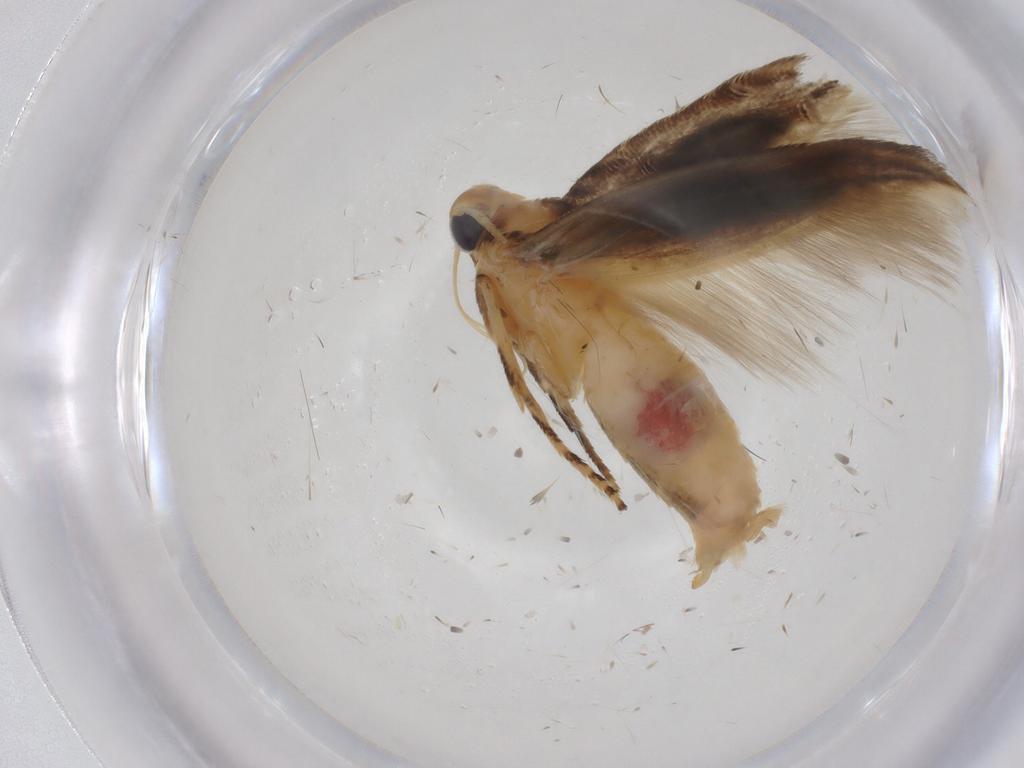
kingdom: Animalia
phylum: Arthropoda
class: Insecta
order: Lepidoptera
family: Momphidae
